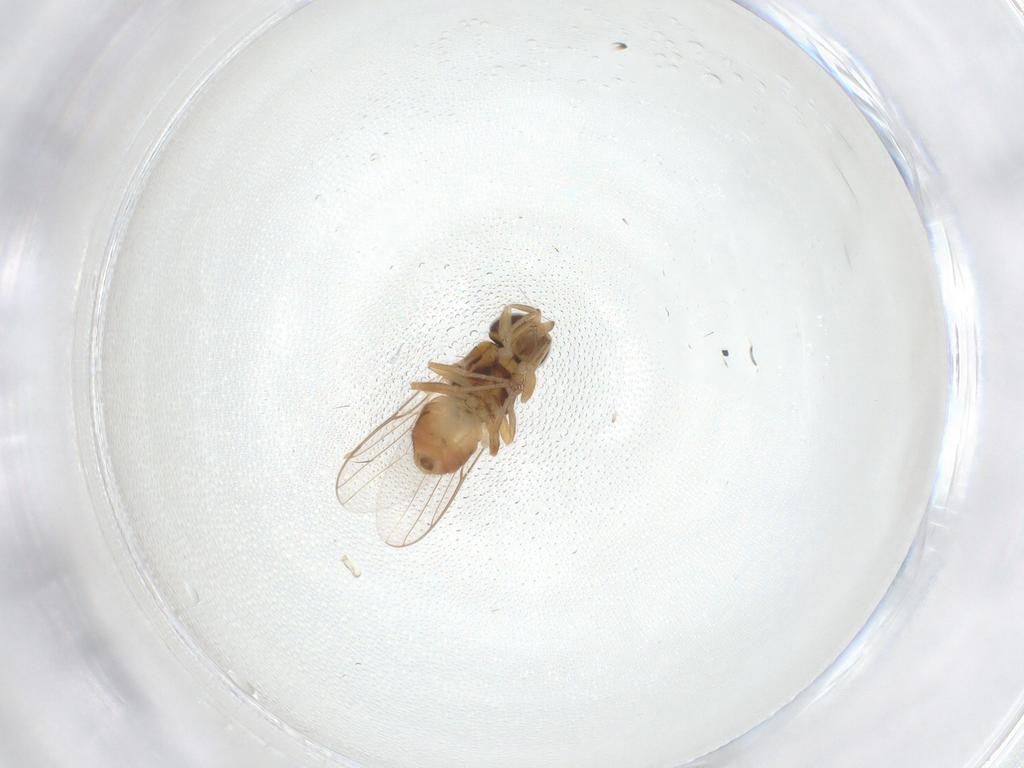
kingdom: Animalia
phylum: Arthropoda
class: Insecta
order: Diptera
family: Chloropidae
